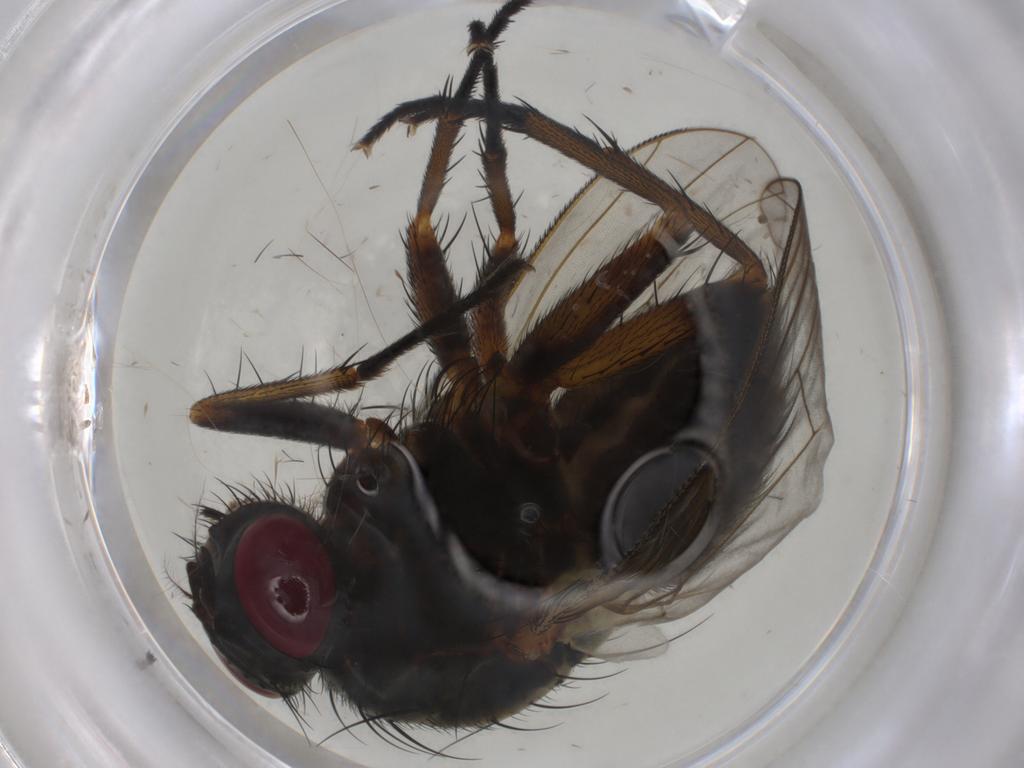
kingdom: Animalia
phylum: Arthropoda
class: Insecta
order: Diptera
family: Muscidae
